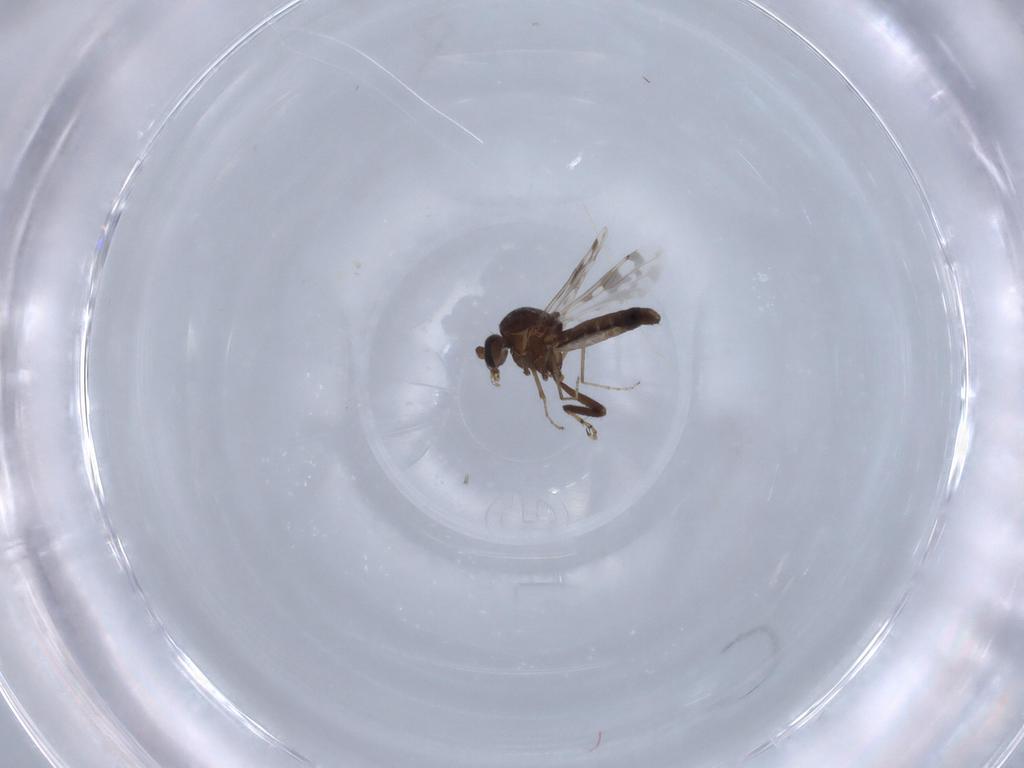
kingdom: Animalia
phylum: Arthropoda
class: Insecta
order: Diptera
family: Ceratopogonidae
